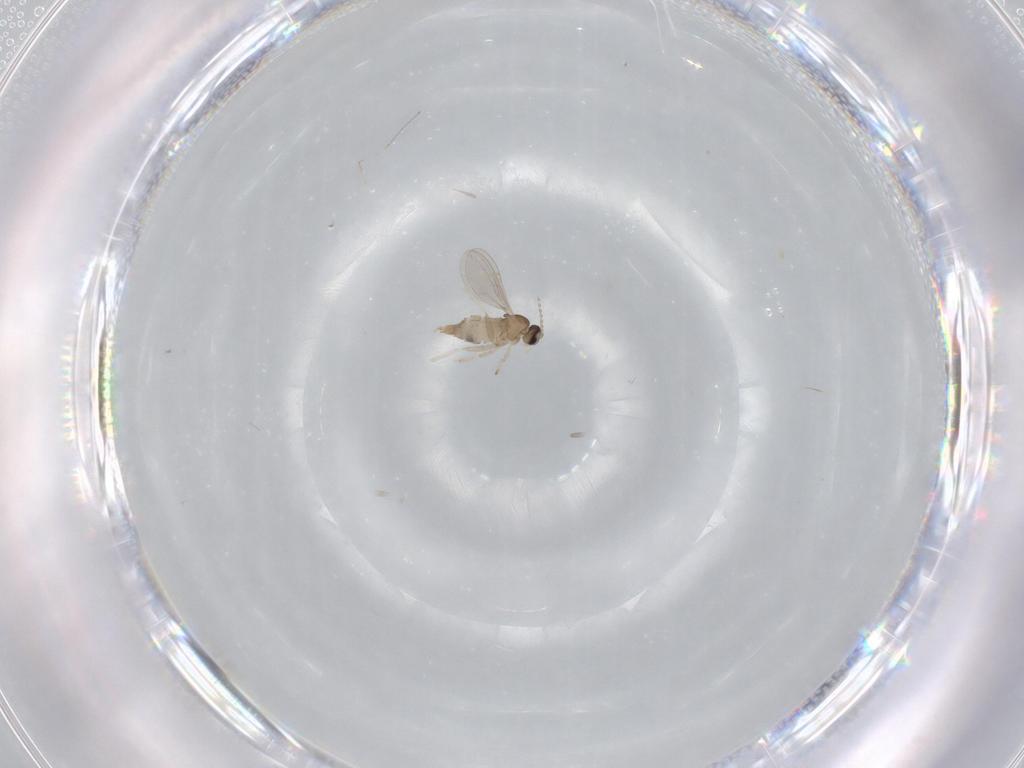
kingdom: Animalia
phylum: Arthropoda
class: Insecta
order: Diptera
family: Cecidomyiidae
